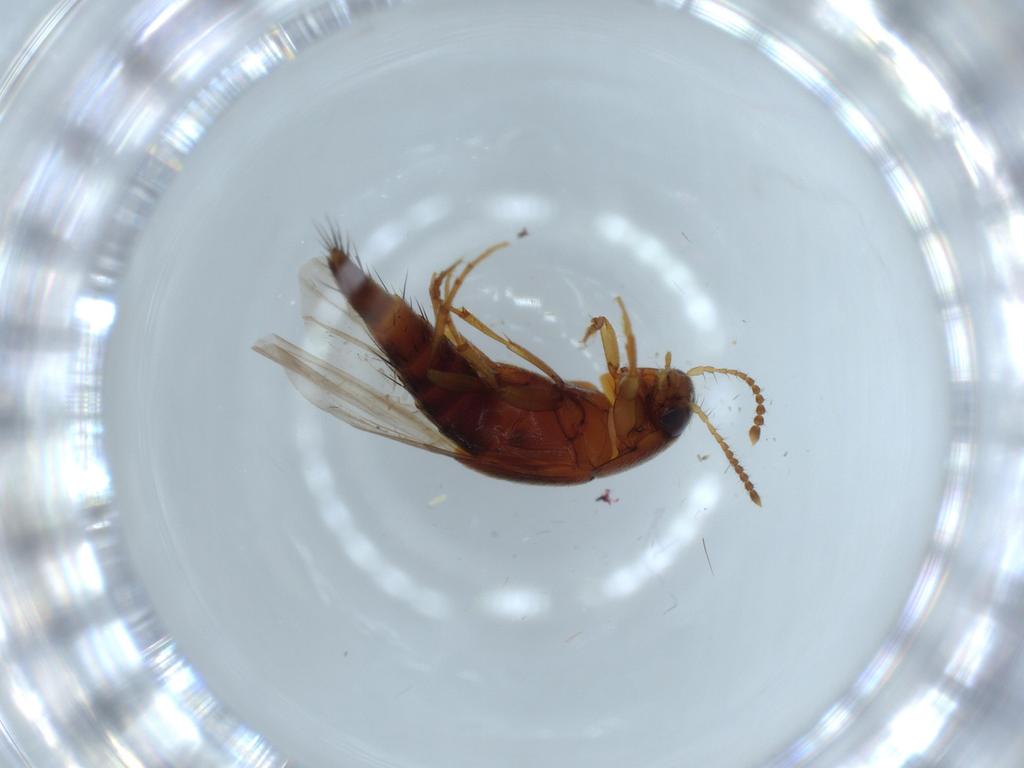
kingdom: Animalia
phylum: Arthropoda
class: Insecta
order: Coleoptera
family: Staphylinidae
